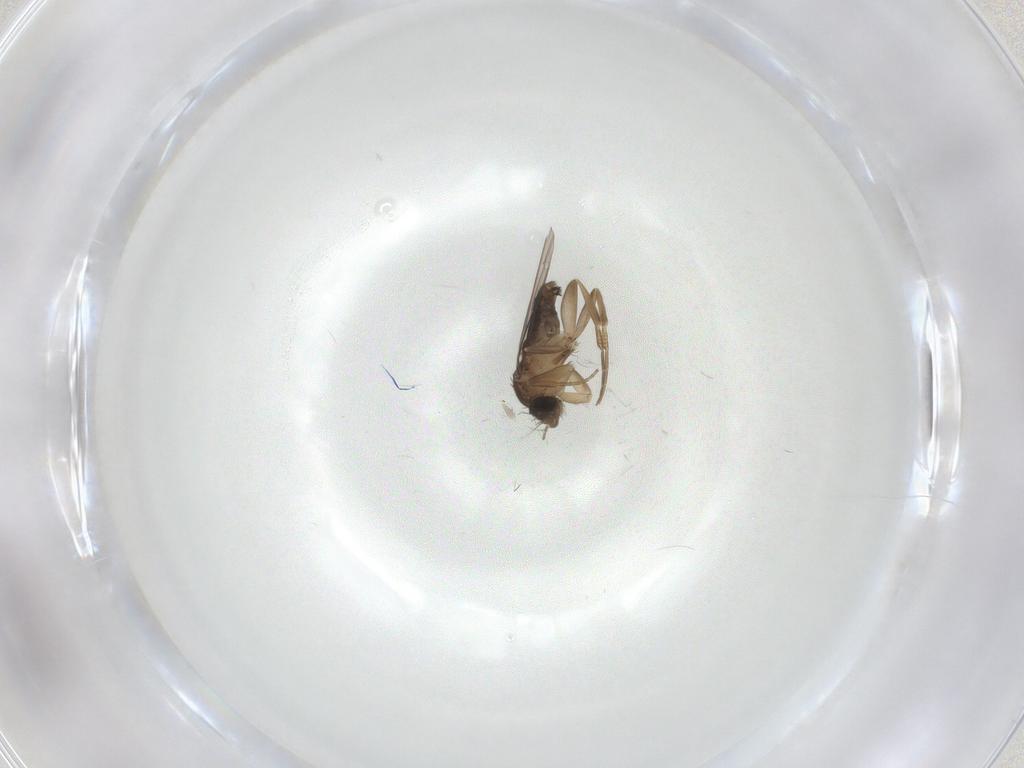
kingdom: Animalia
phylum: Arthropoda
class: Insecta
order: Diptera
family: Ceratopogonidae
